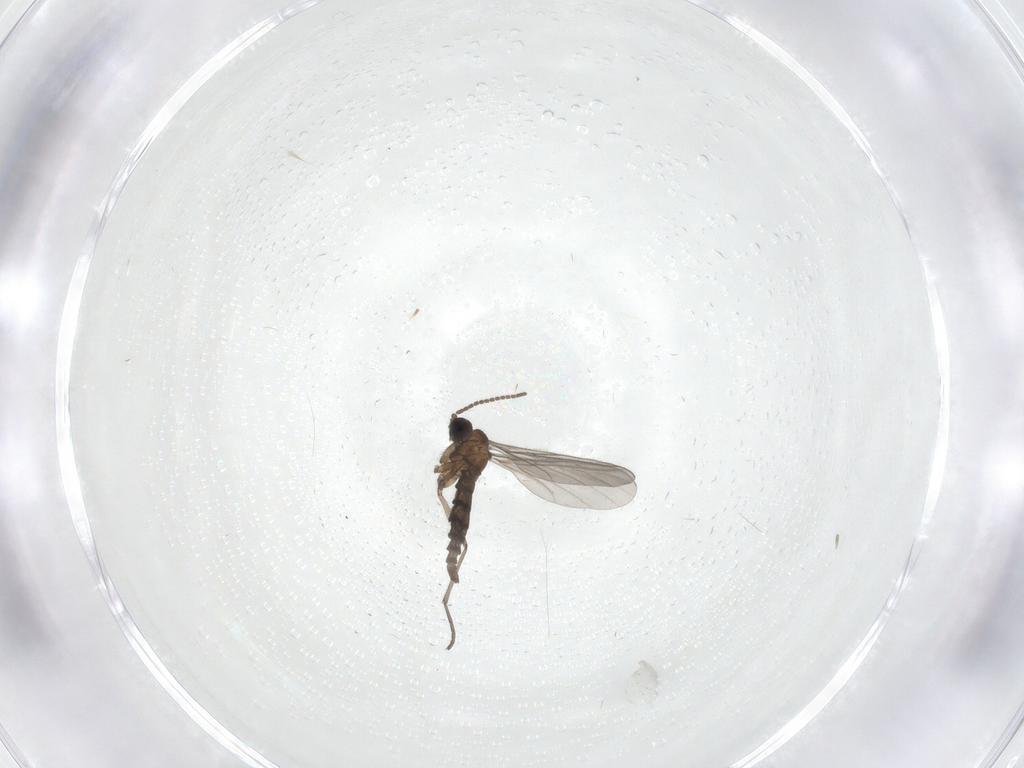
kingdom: Animalia
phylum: Arthropoda
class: Insecta
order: Diptera
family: Sciaridae
